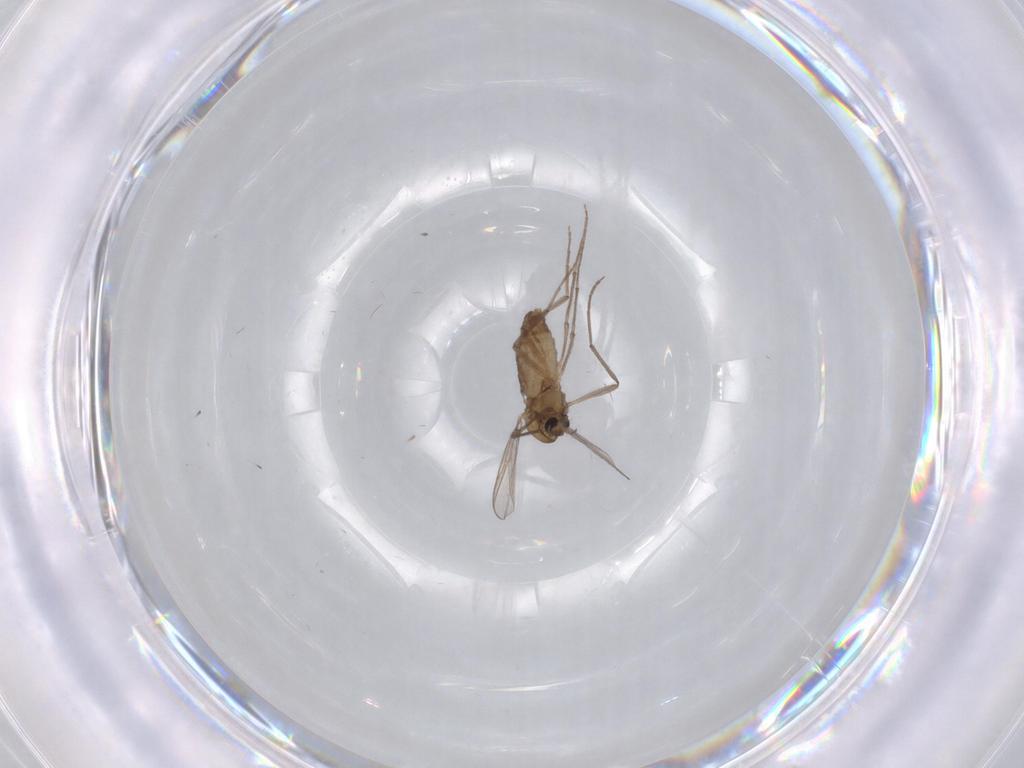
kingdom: Animalia
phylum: Arthropoda
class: Insecta
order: Diptera
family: Chironomidae
